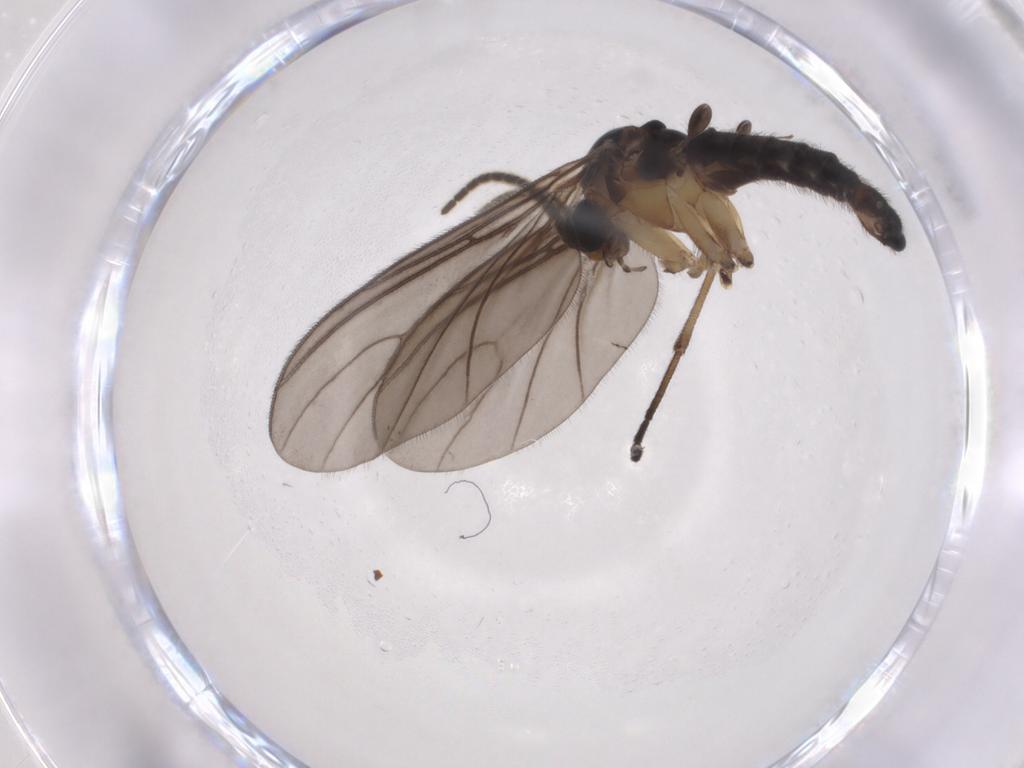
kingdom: Animalia
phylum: Arthropoda
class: Insecta
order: Diptera
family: Sciaridae
